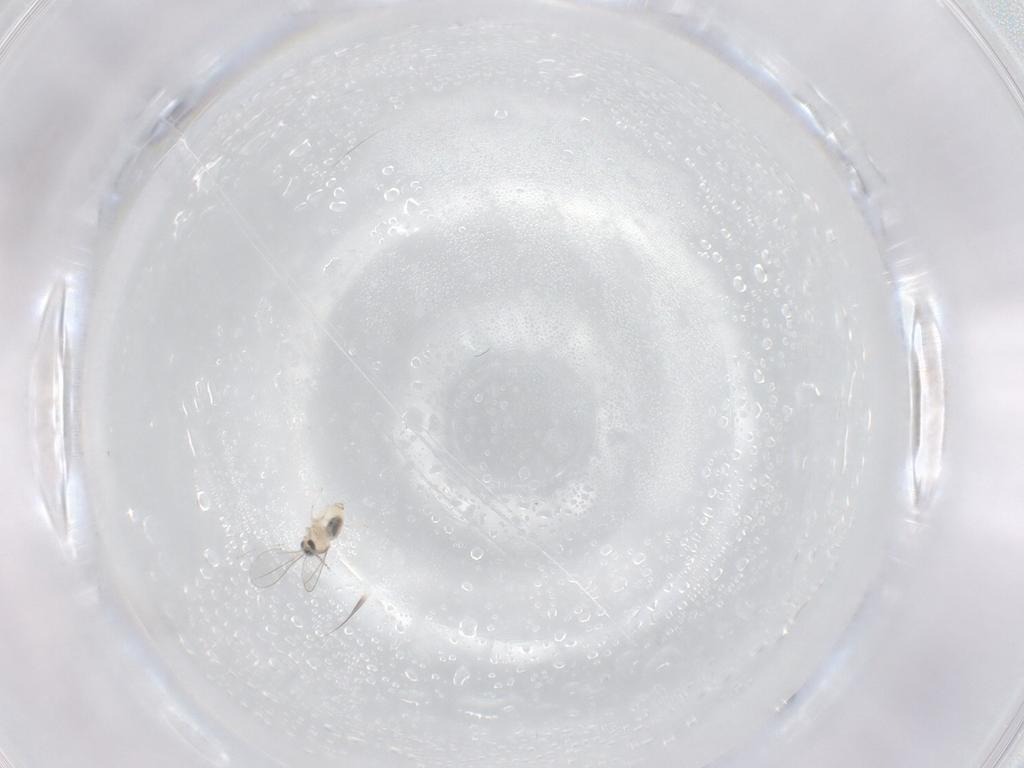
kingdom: Animalia
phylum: Arthropoda
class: Insecta
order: Diptera
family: Cecidomyiidae
